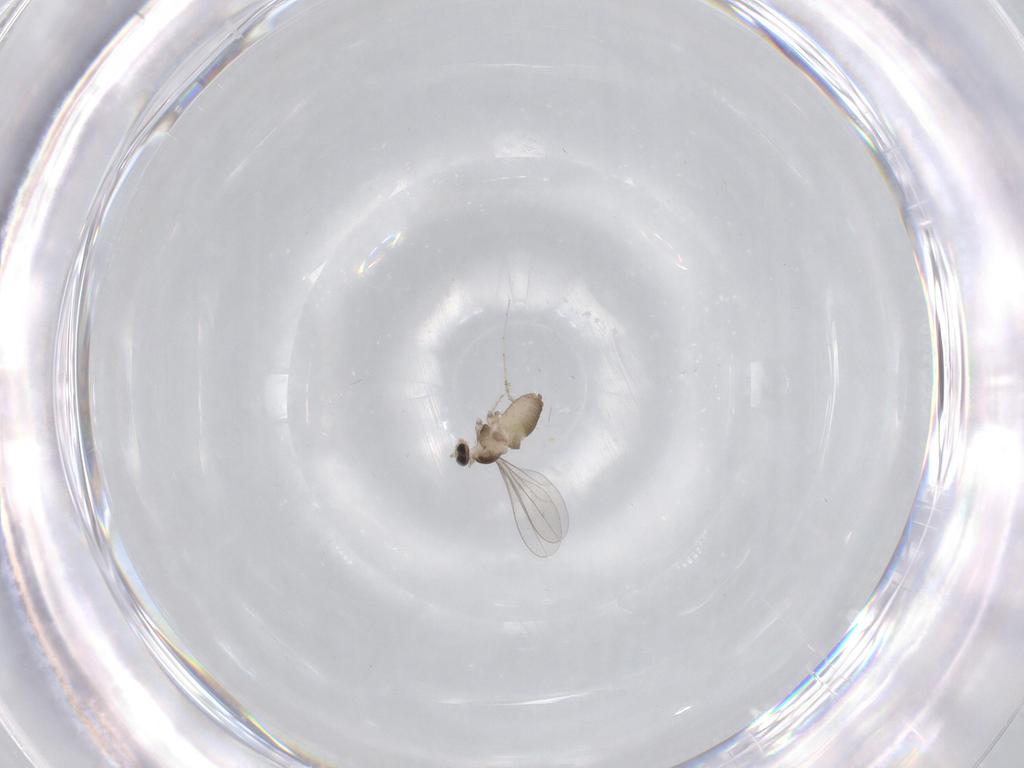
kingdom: Animalia
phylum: Arthropoda
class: Insecta
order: Diptera
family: Cecidomyiidae
